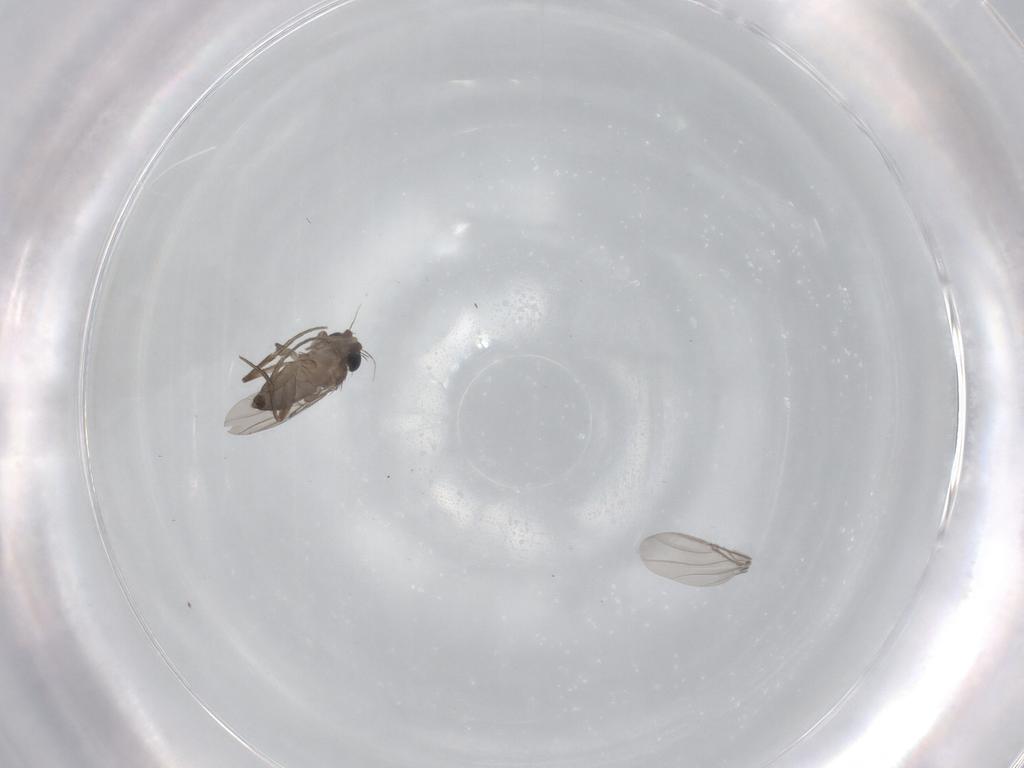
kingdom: Animalia
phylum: Arthropoda
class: Insecta
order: Diptera
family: Phoridae
